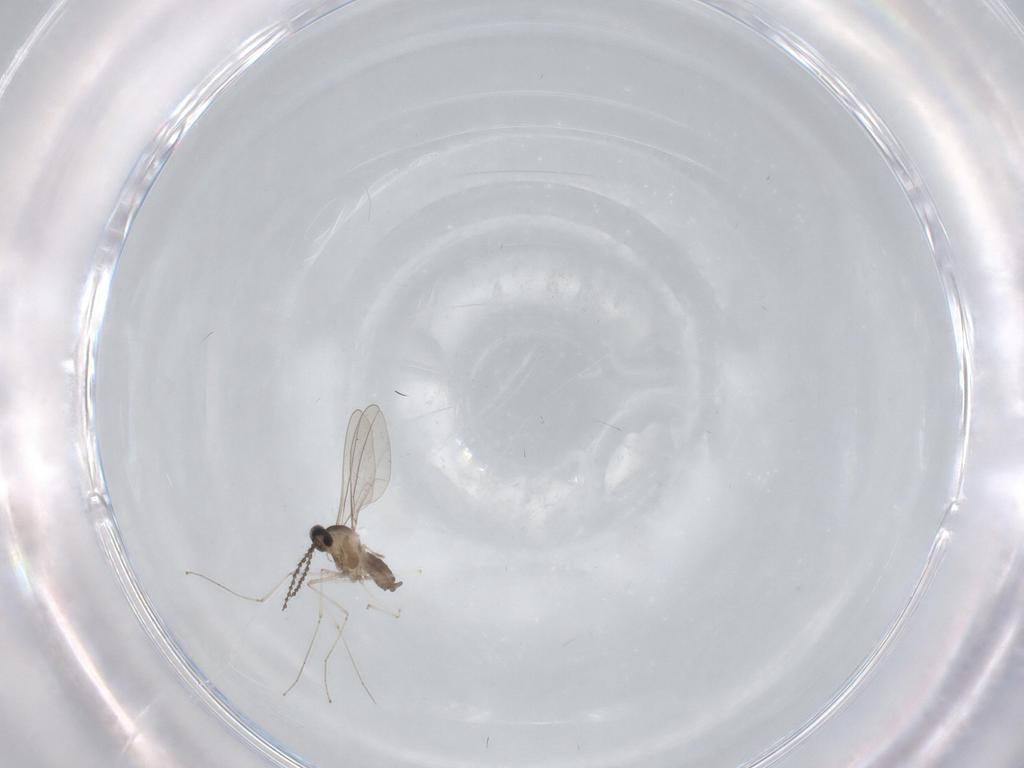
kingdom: Animalia
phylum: Arthropoda
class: Insecta
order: Diptera
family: Cecidomyiidae
